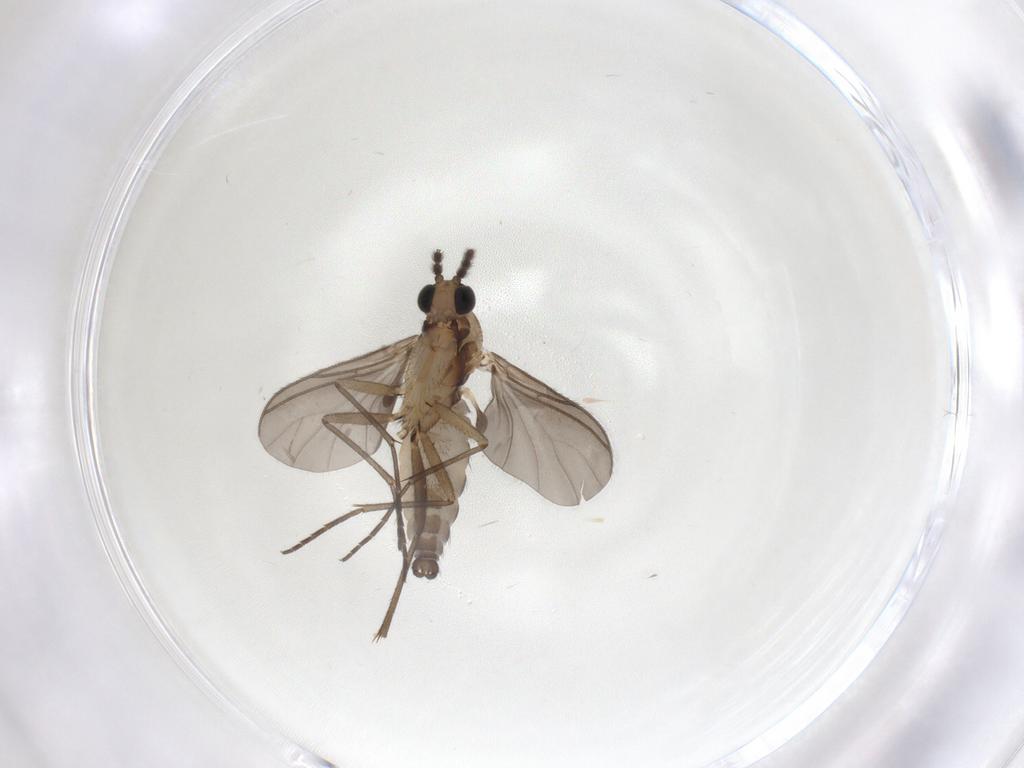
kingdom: Animalia
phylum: Arthropoda
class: Insecta
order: Diptera
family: Sciaridae
